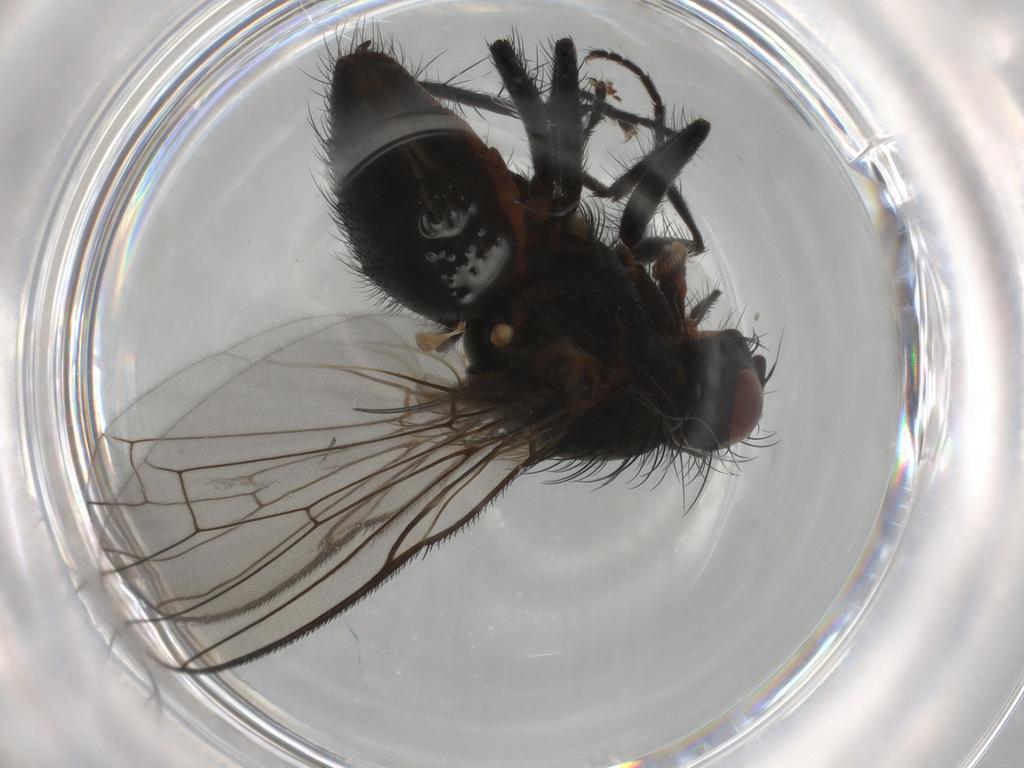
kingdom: Animalia
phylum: Arthropoda
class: Insecta
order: Diptera
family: Anthomyiidae
